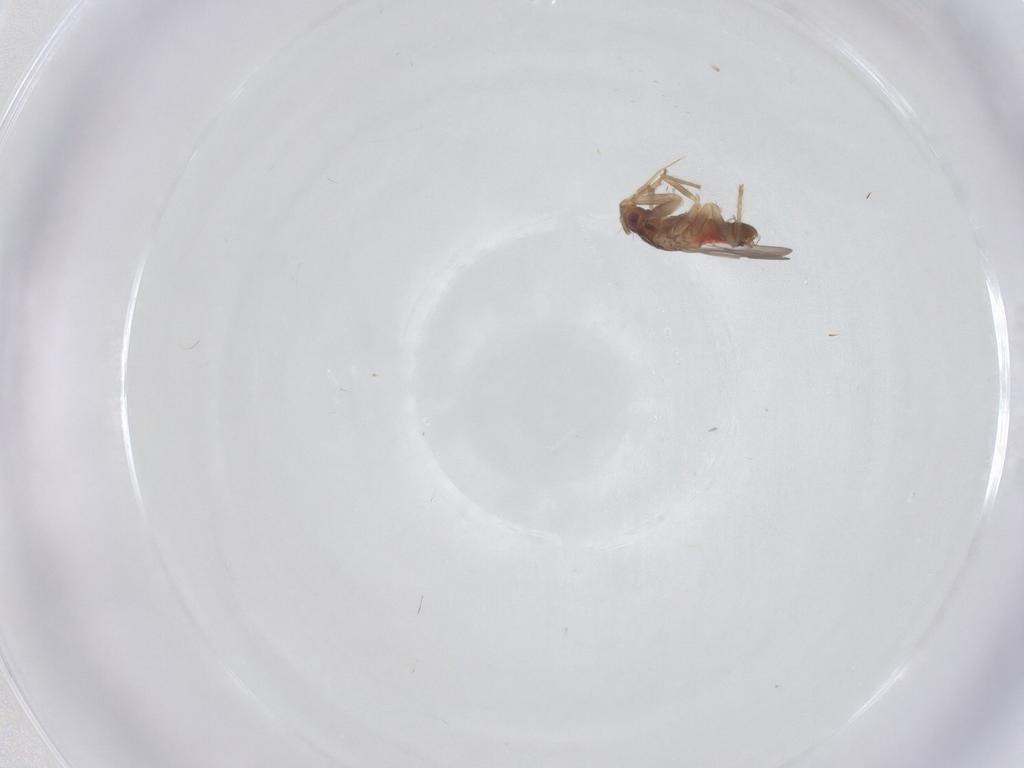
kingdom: Animalia
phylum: Arthropoda
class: Insecta
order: Hemiptera
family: Ceratocombidae
